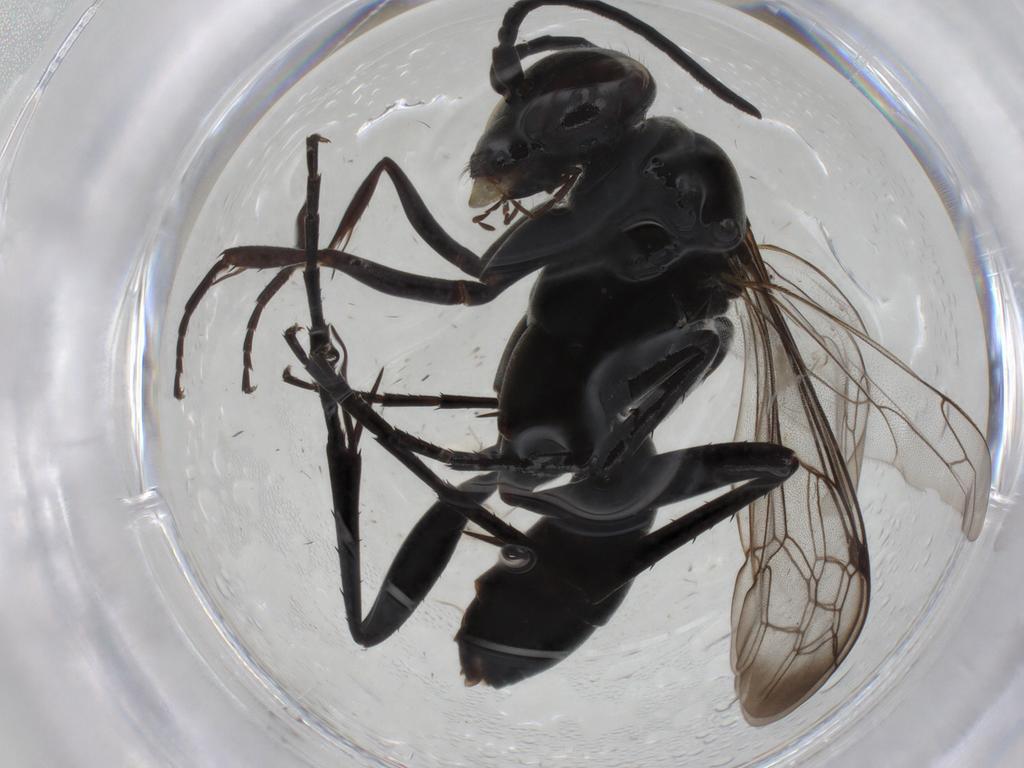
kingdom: Animalia
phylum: Arthropoda
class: Insecta
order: Hymenoptera
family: Pompilidae
